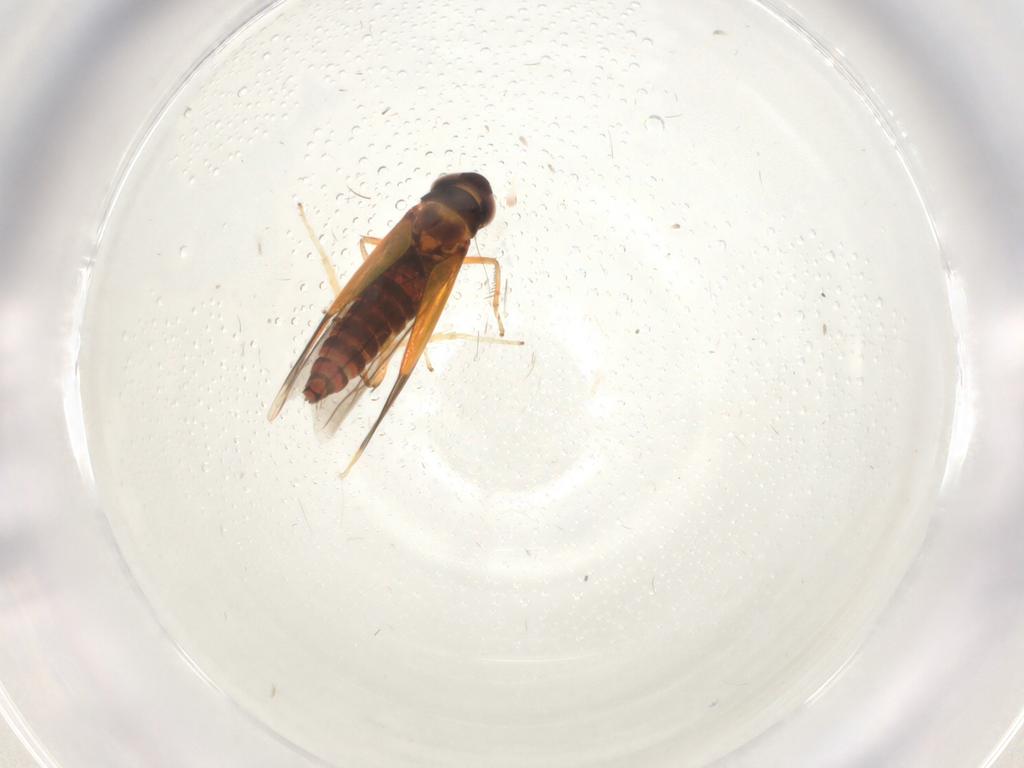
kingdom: Animalia
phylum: Arthropoda
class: Insecta
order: Hemiptera
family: Cicadellidae
